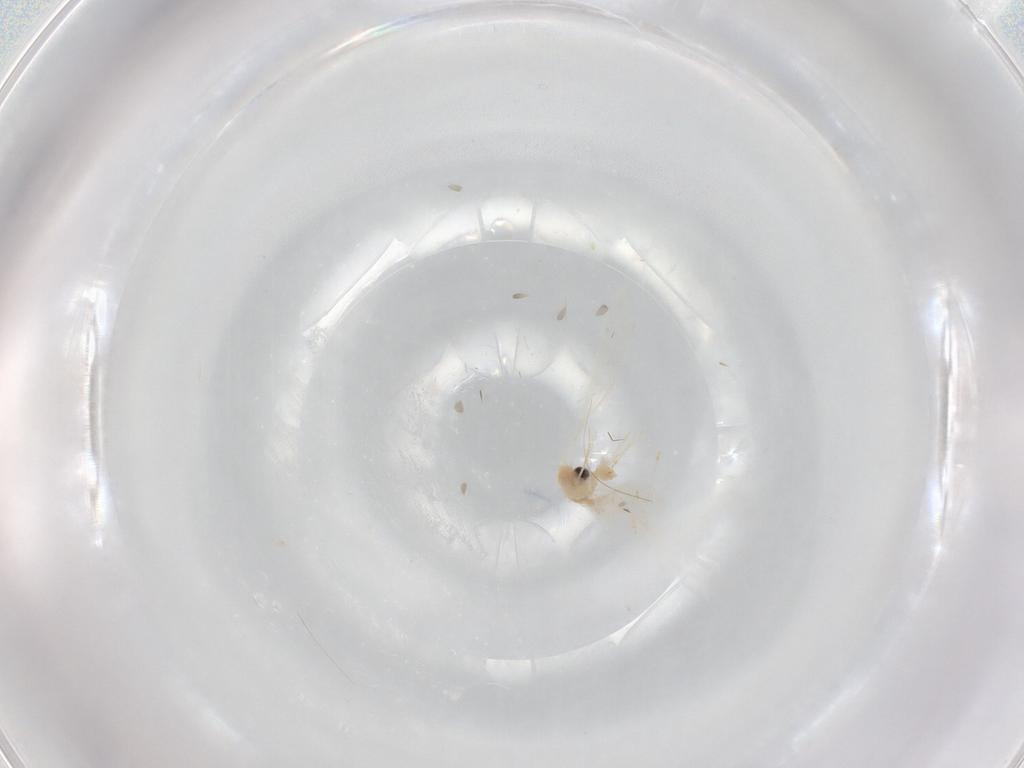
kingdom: Animalia
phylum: Arthropoda
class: Insecta
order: Diptera
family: Cecidomyiidae
